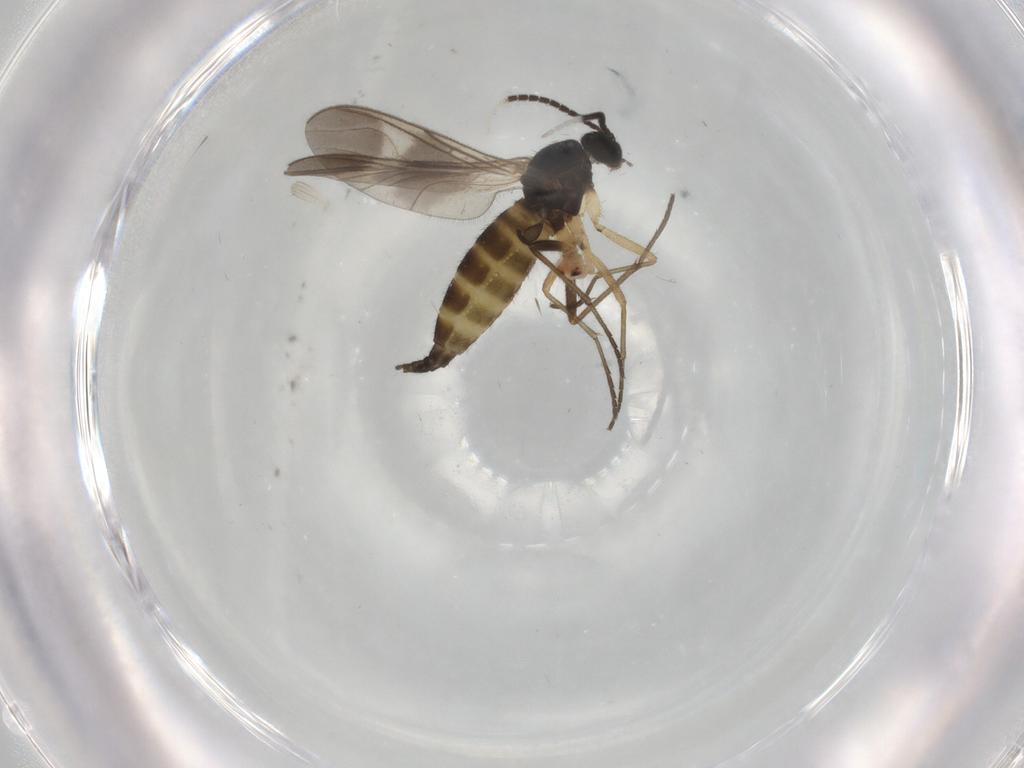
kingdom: Animalia
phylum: Arthropoda
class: Insecta
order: Diptera
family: Sciaridae
